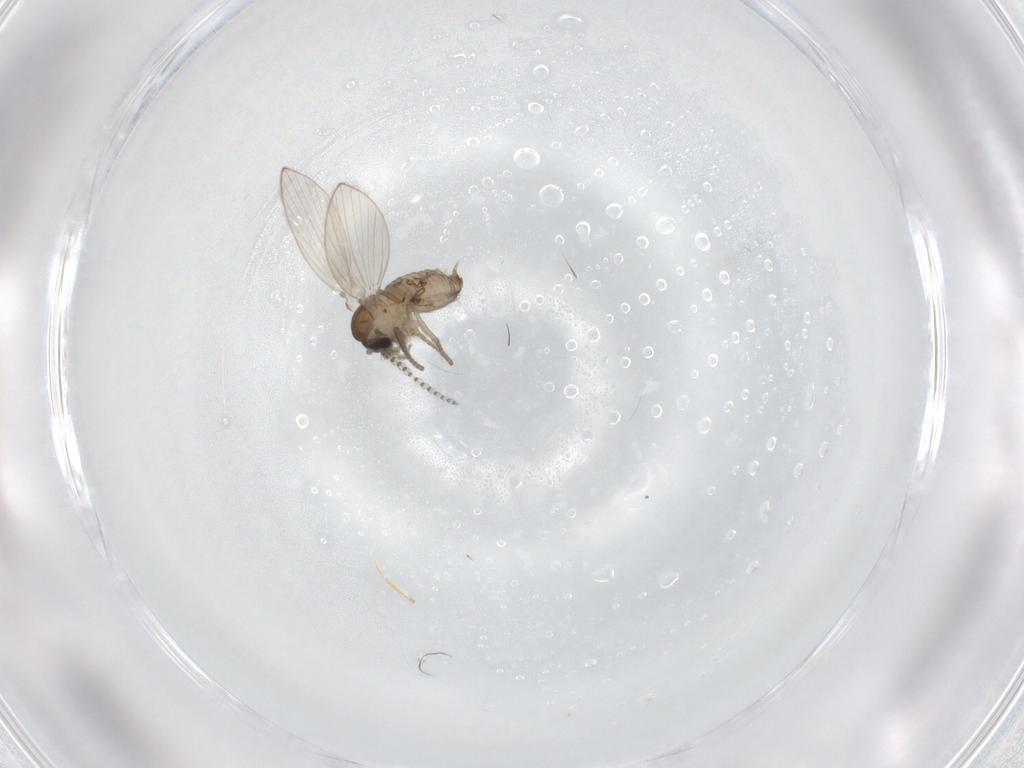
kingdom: Animalia
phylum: Arthropoda
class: Insecta
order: Diptera
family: Psychodidae
